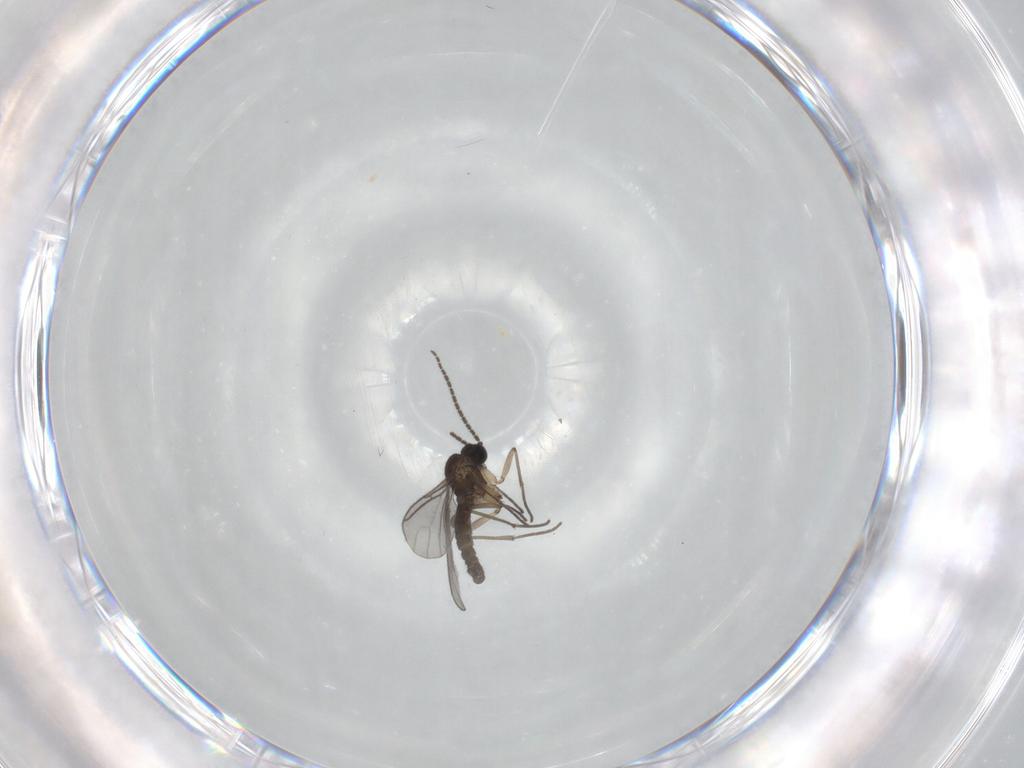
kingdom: Animalia
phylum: Arthropoda
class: Insecta
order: Diptera
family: Sciaridae
